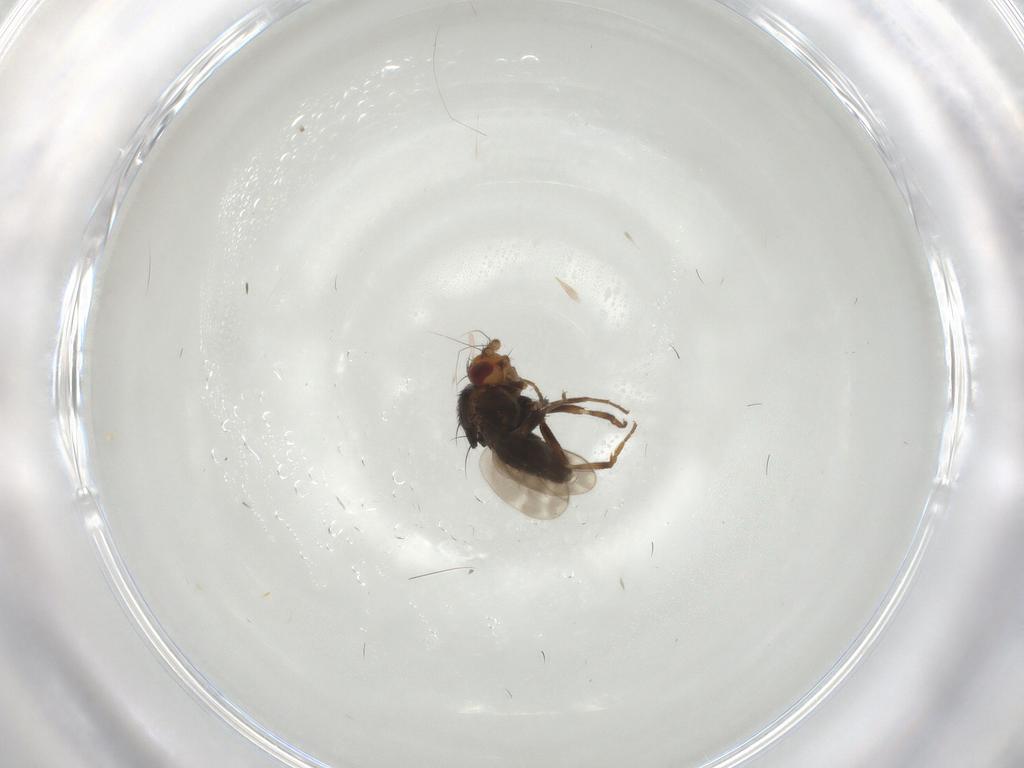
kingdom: Animalia
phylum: Arthropoda
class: Insecta
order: Diptera
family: Sphaeroceridae
